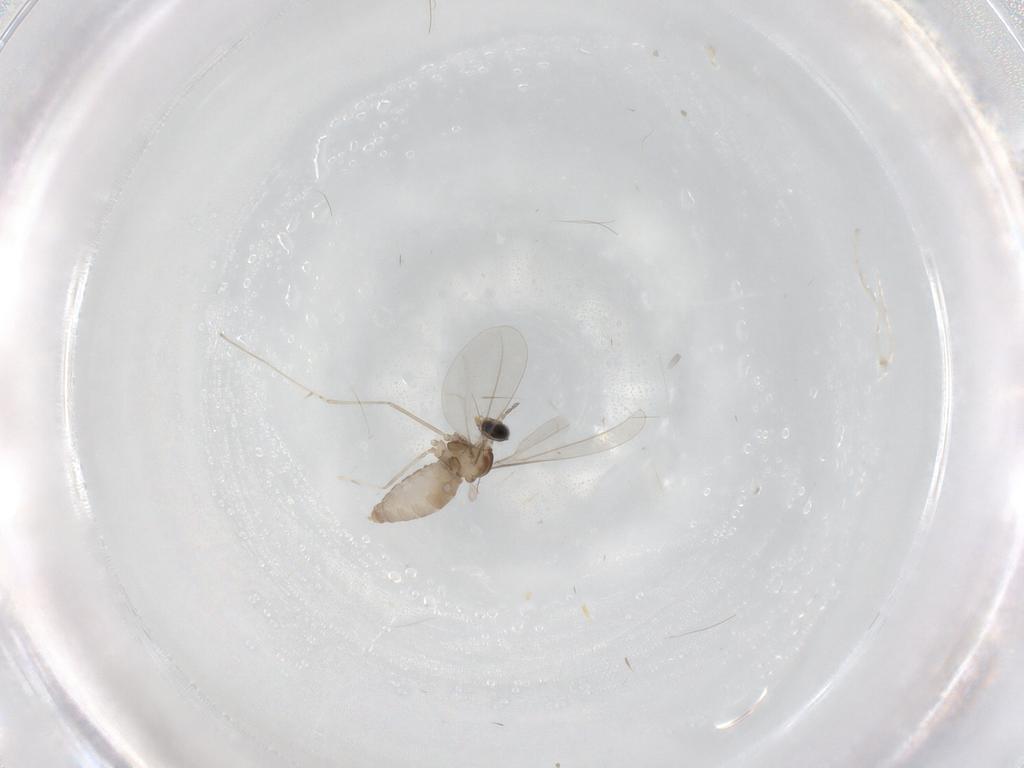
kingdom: Animalia
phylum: Arthropoda
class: Insecta
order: Diptera
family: Cecidomyiidae
